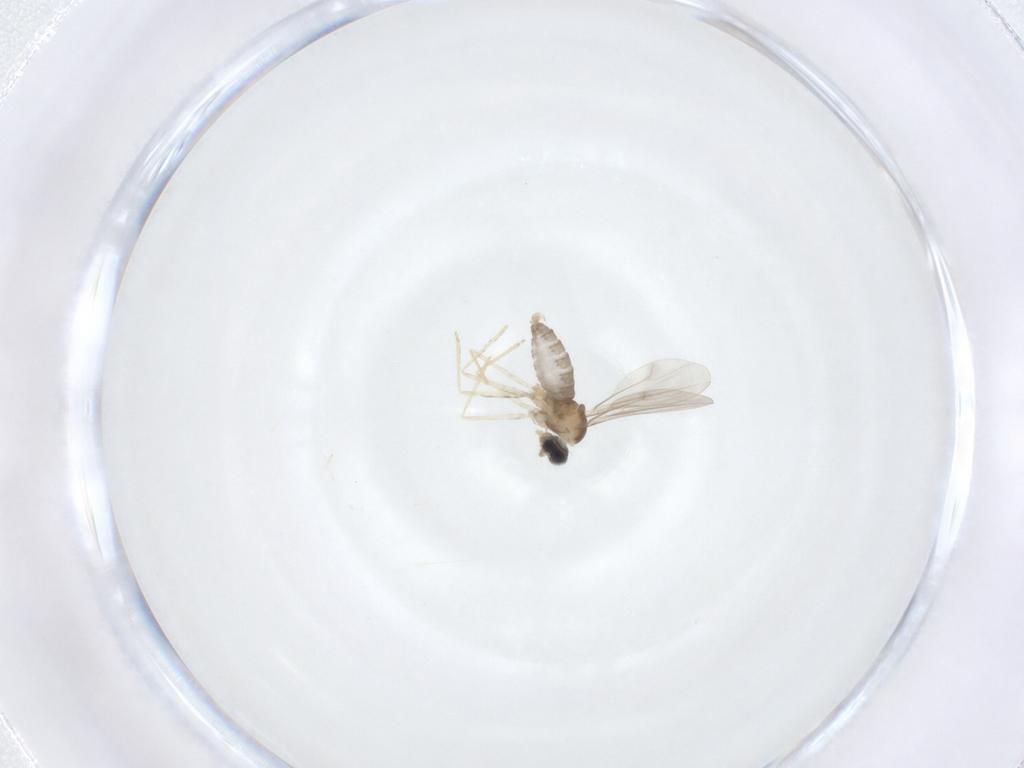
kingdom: Animalia
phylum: Arthropoda
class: Insecta
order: Diptera
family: Cecidomyiidae
